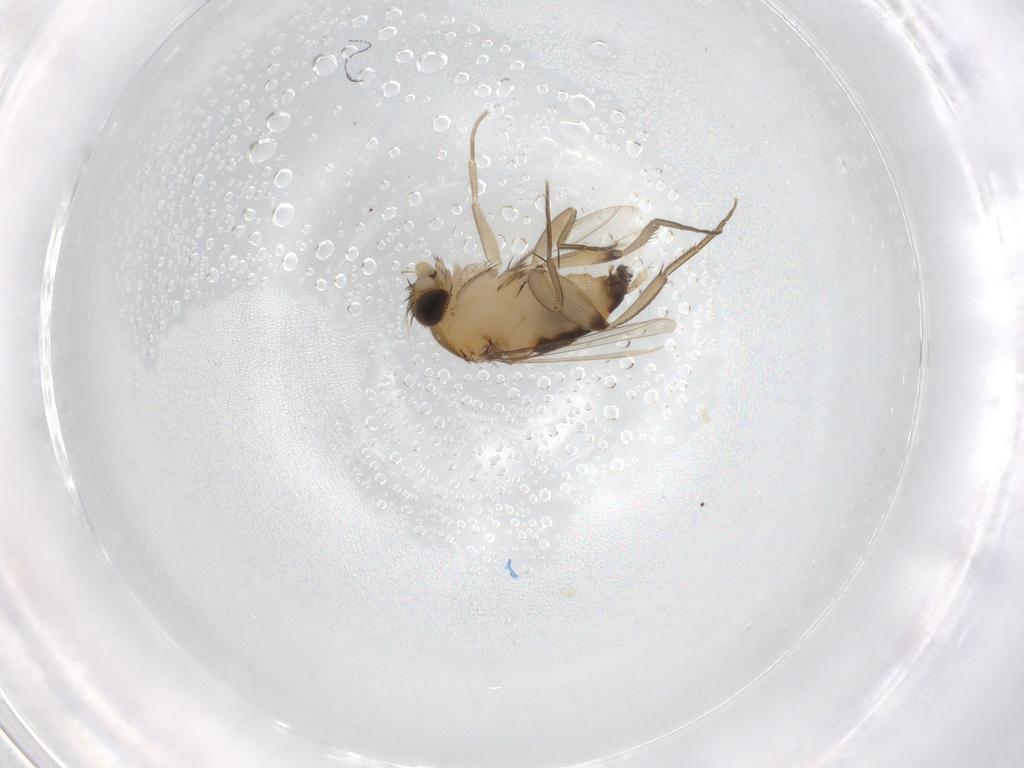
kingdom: Animalia
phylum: Arthropoda
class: Insecta
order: Diptera
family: Phoridae
